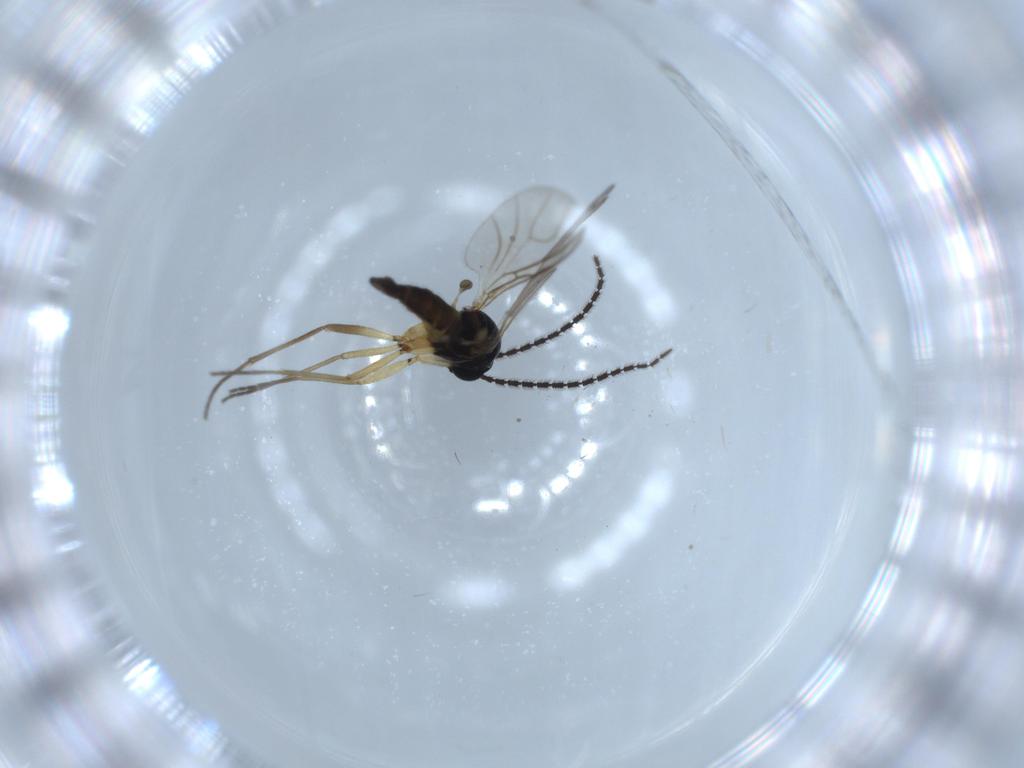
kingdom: Animalia
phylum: Arthropoda
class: Insecta
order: Diptera
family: Sciaridae
